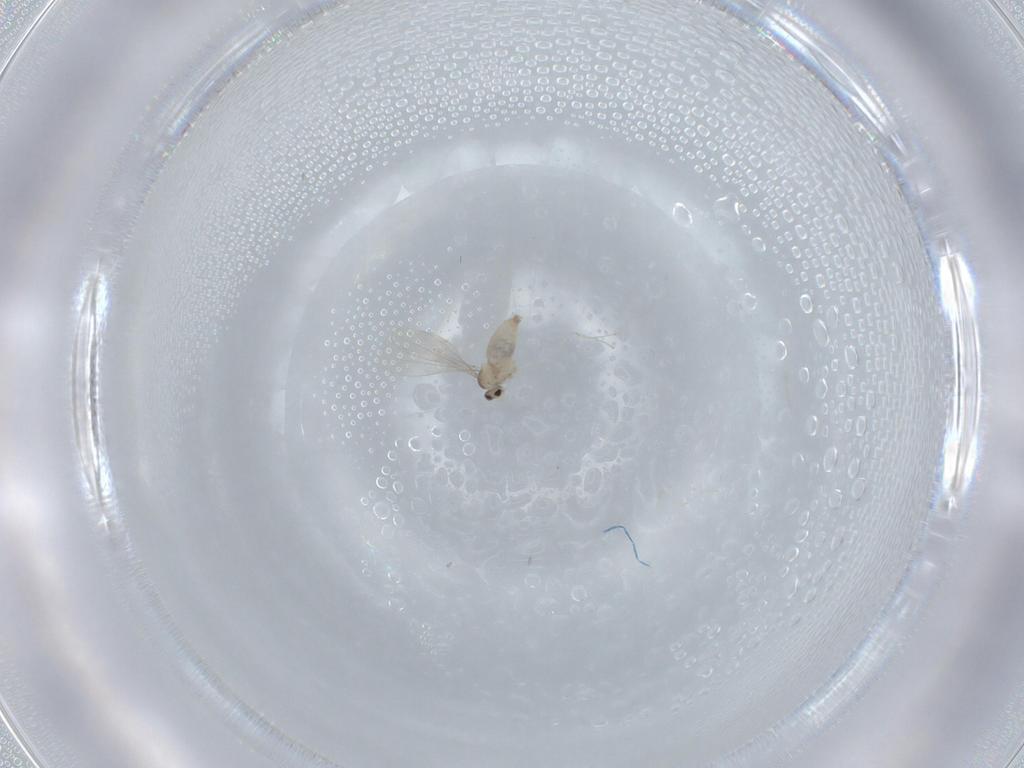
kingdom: Animalia
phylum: Arthropoda
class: Insecta
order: Diptera
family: Cecidomyiidae
